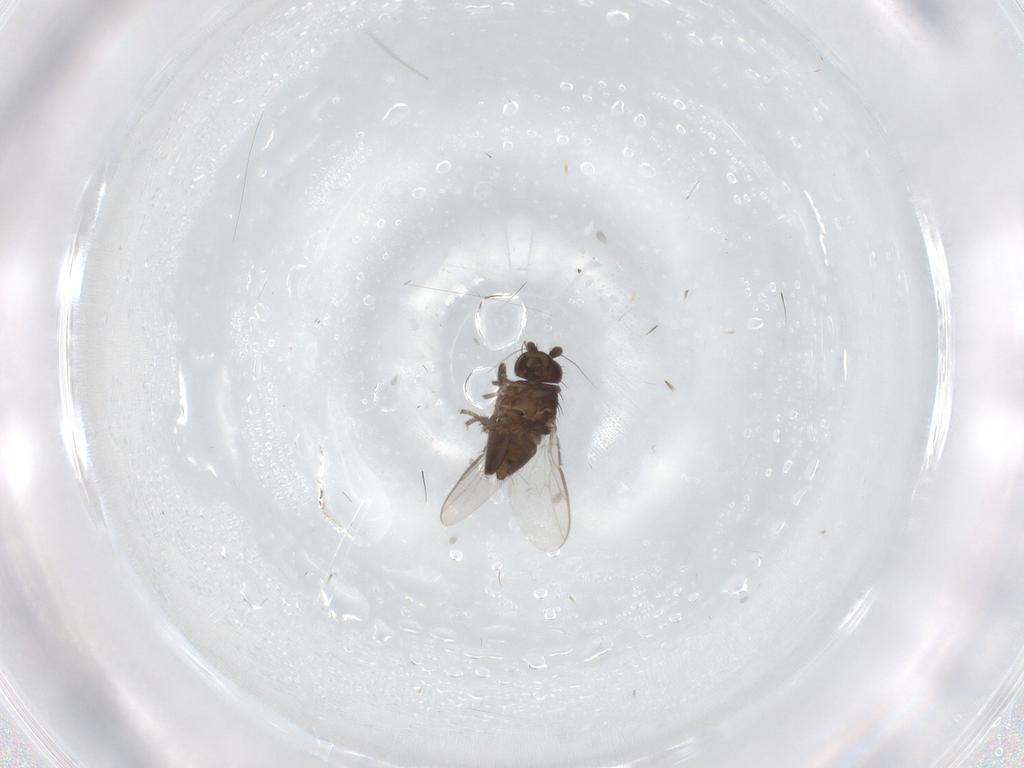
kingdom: Animalia
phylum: Arthropoda
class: Insecta
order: Diptera
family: Sphaeroceridae
